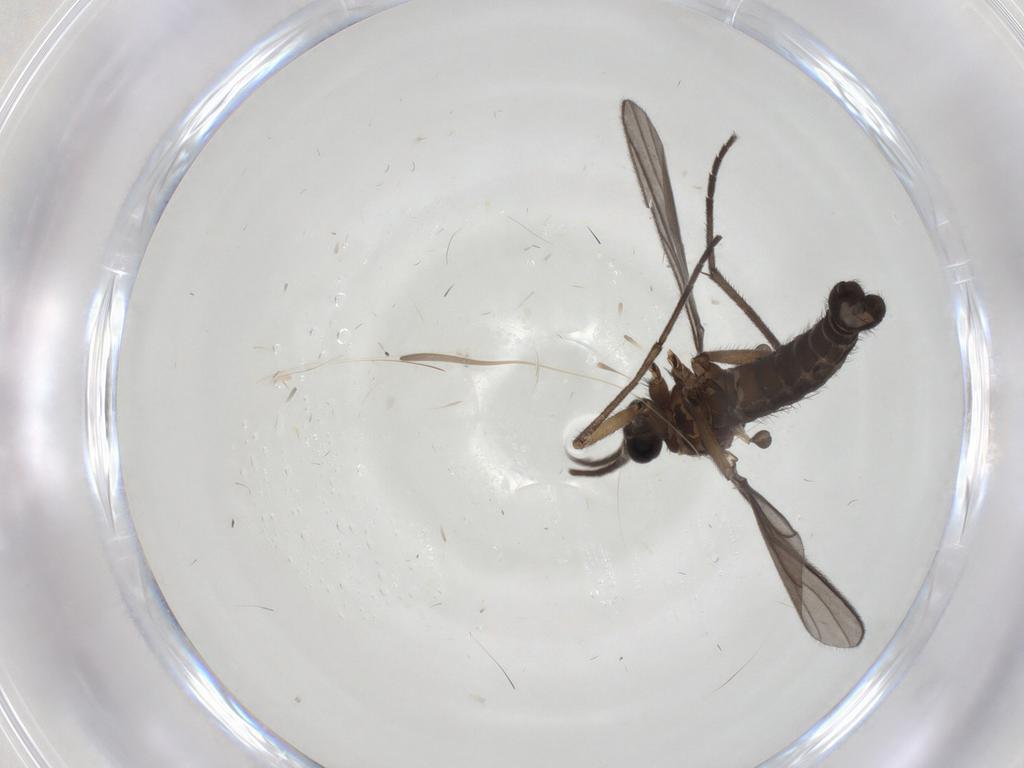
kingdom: Animalia
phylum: Arthropoda
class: Insecta
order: Diptera
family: Sciaridae
